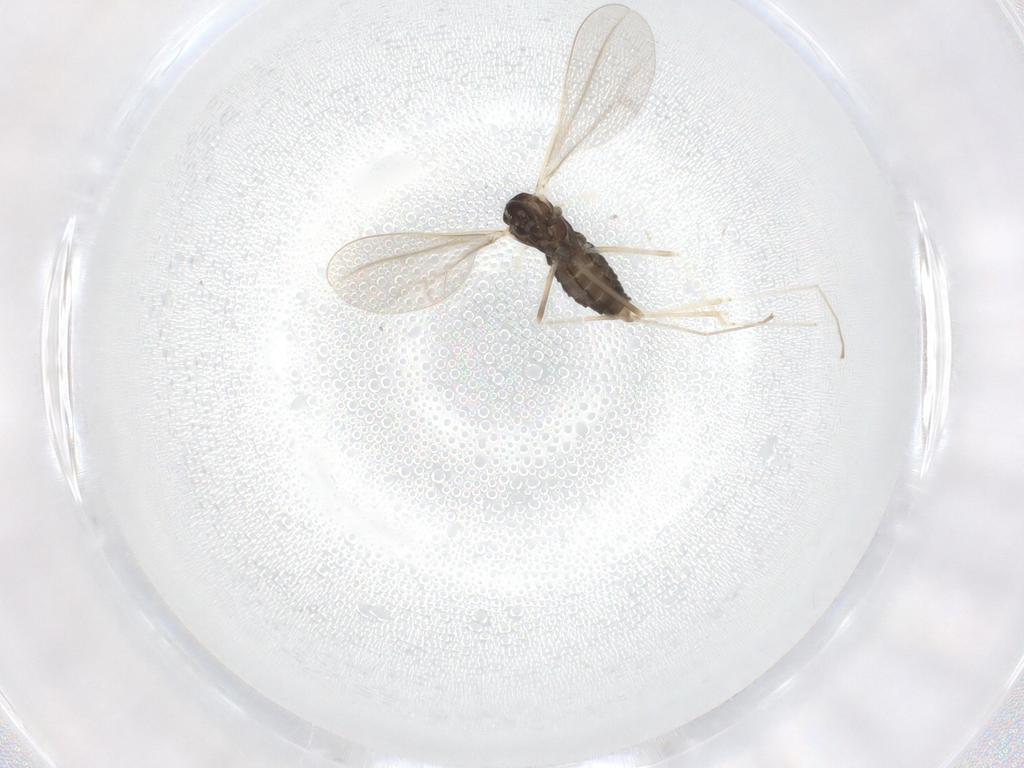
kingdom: Animalia
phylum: Arthropoda
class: Insecta
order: Diptera
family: Cecidomyiidae
